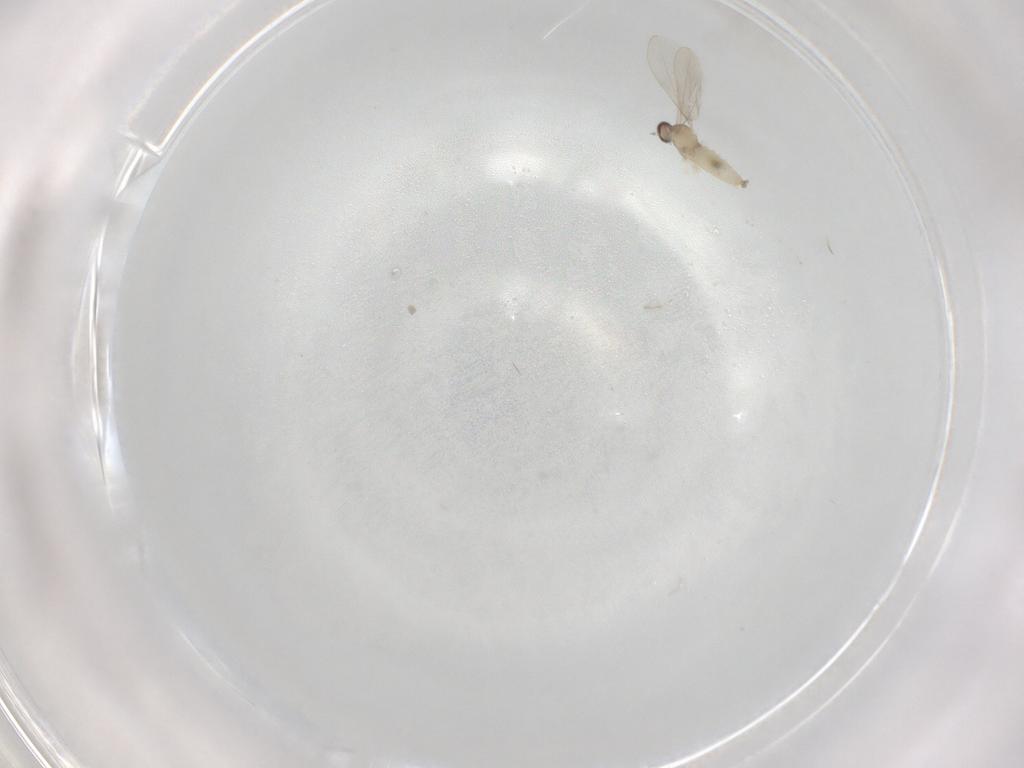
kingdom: Animalia
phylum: Arthropoda
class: Insecta
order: Diptera
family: Cecidomyiidae
